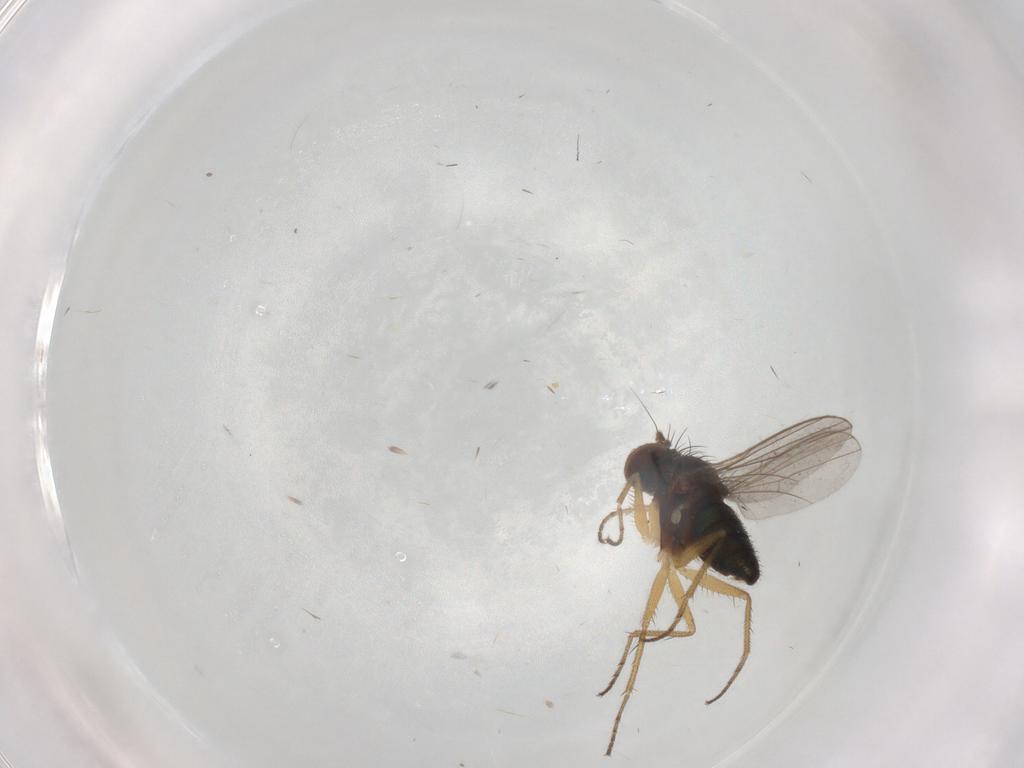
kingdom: Animalia
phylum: Arthropoda
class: Insecta
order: Diptera
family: Dolichopodidae
